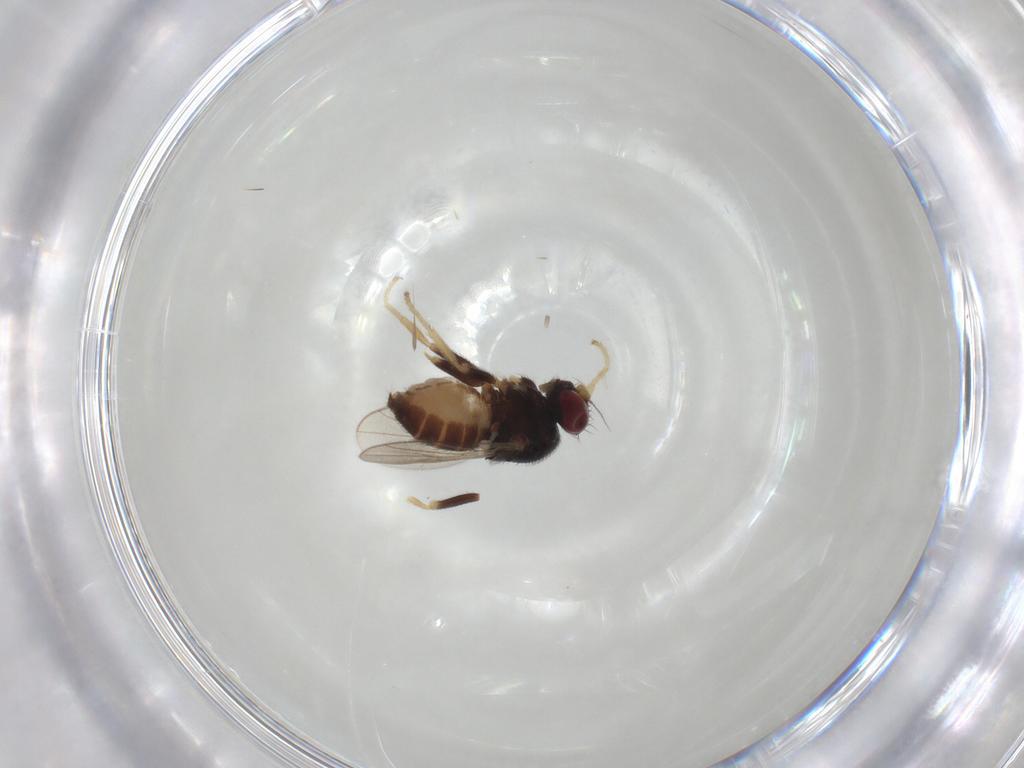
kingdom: Animalia
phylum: Arthropoda
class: Insecta
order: Diptera
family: Chloropidae
